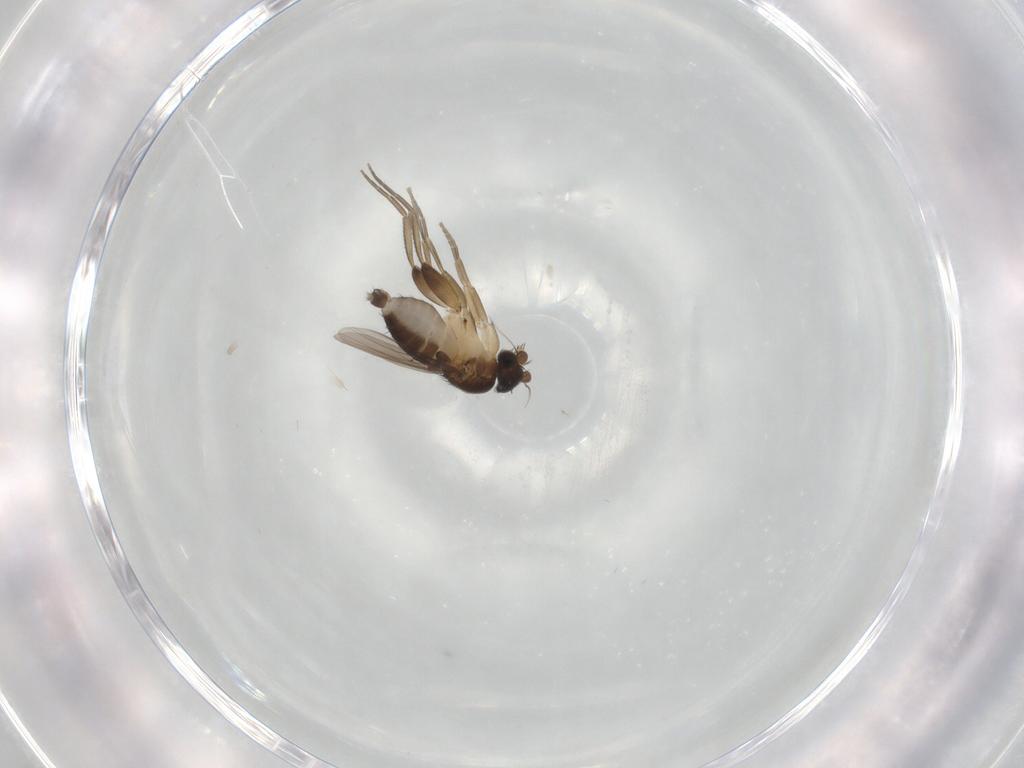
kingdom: Animalia
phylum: Arthropoda
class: Insecta
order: Diptera
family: Phoridae
